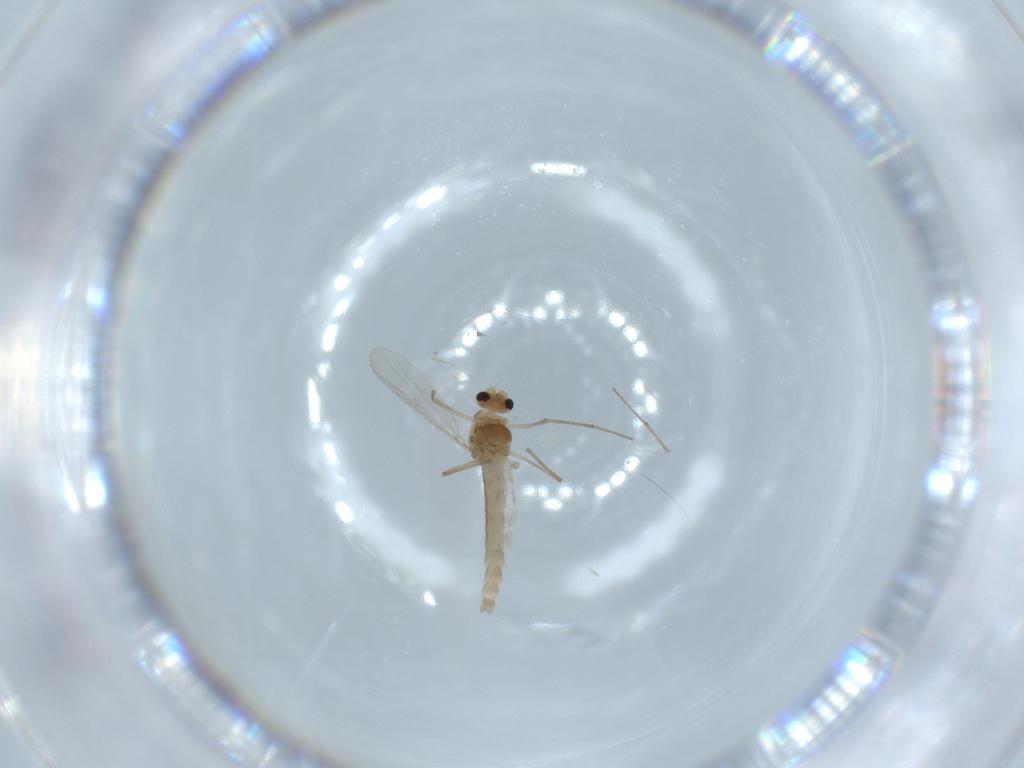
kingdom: Animalia
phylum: Arthropoda
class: Insecta
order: Diptera
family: Chironomidae
